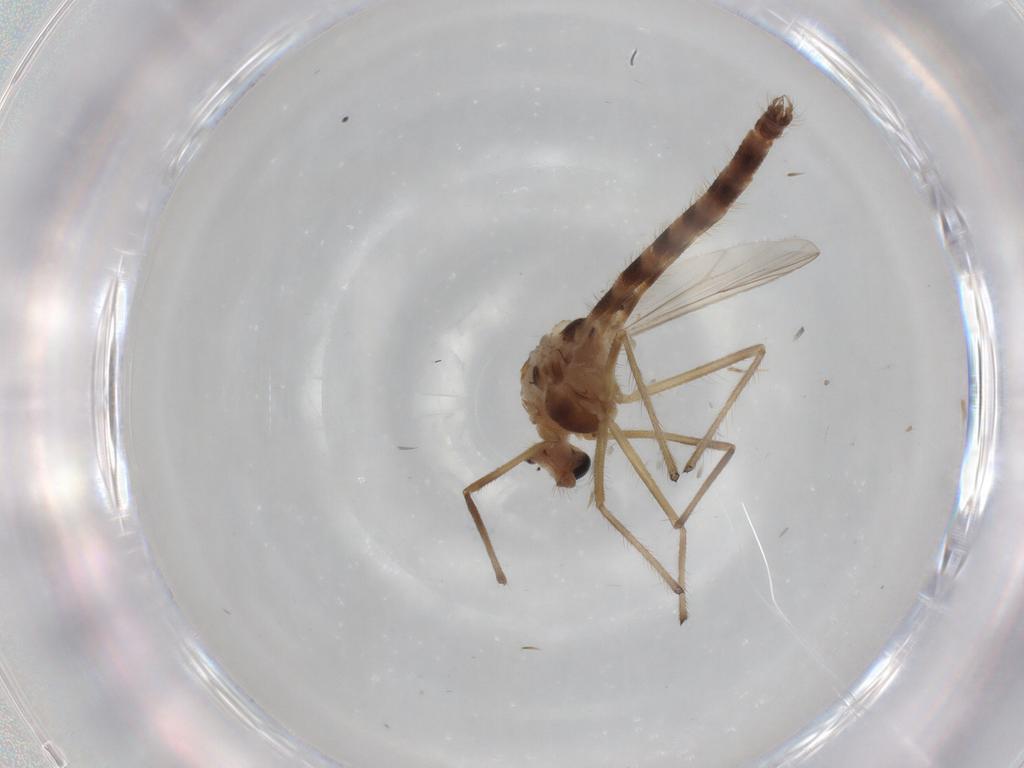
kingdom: Animalia
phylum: Arthropoda
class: Insecta
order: Diptera
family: Chironomidae
